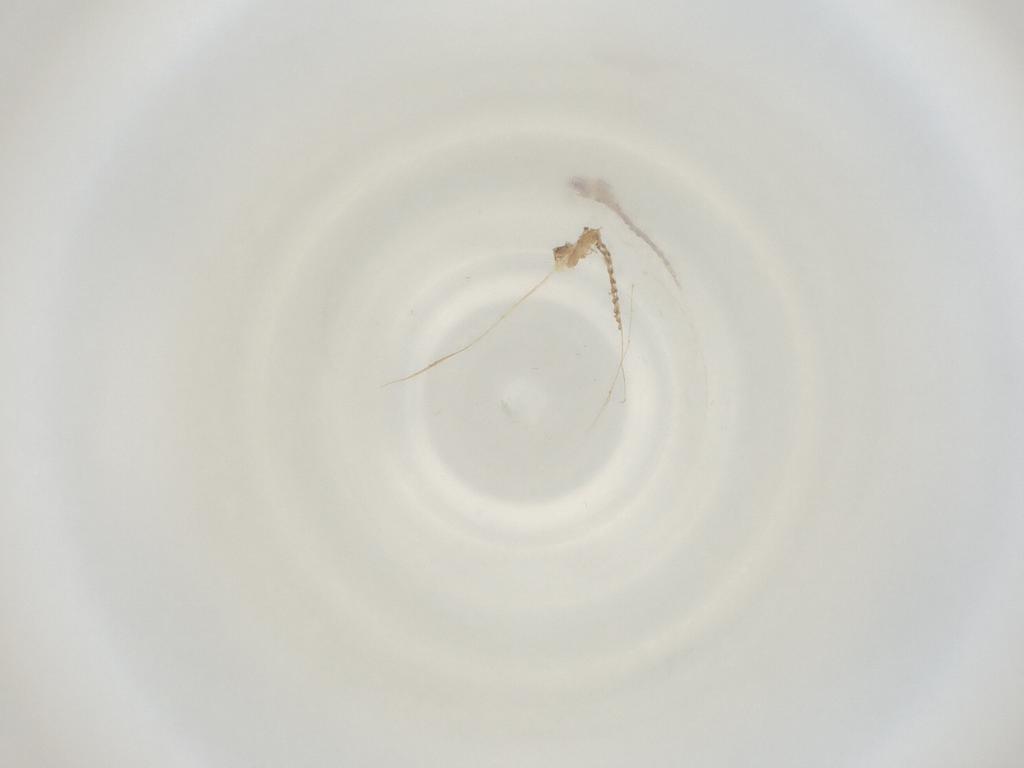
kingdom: Animalia
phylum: Arthropoda
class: Insecta
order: Diptera
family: Cecidomyiidae
